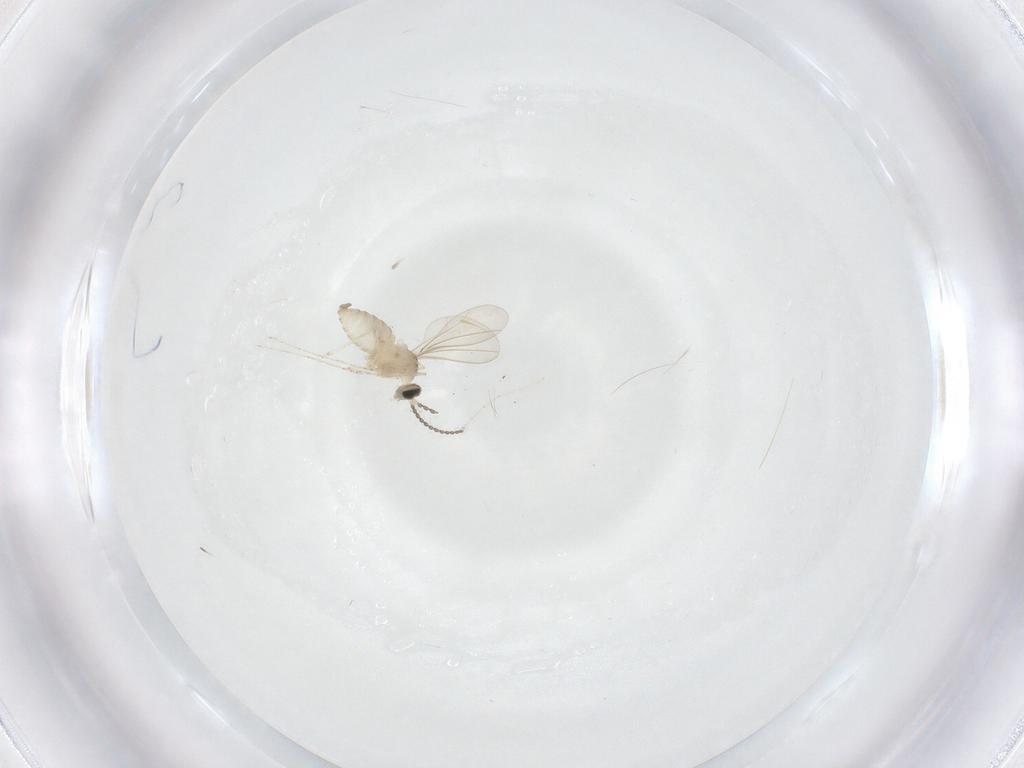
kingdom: Animalia
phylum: Arthropoda
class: Insecta
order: Diptera
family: Cecidomyiidae
